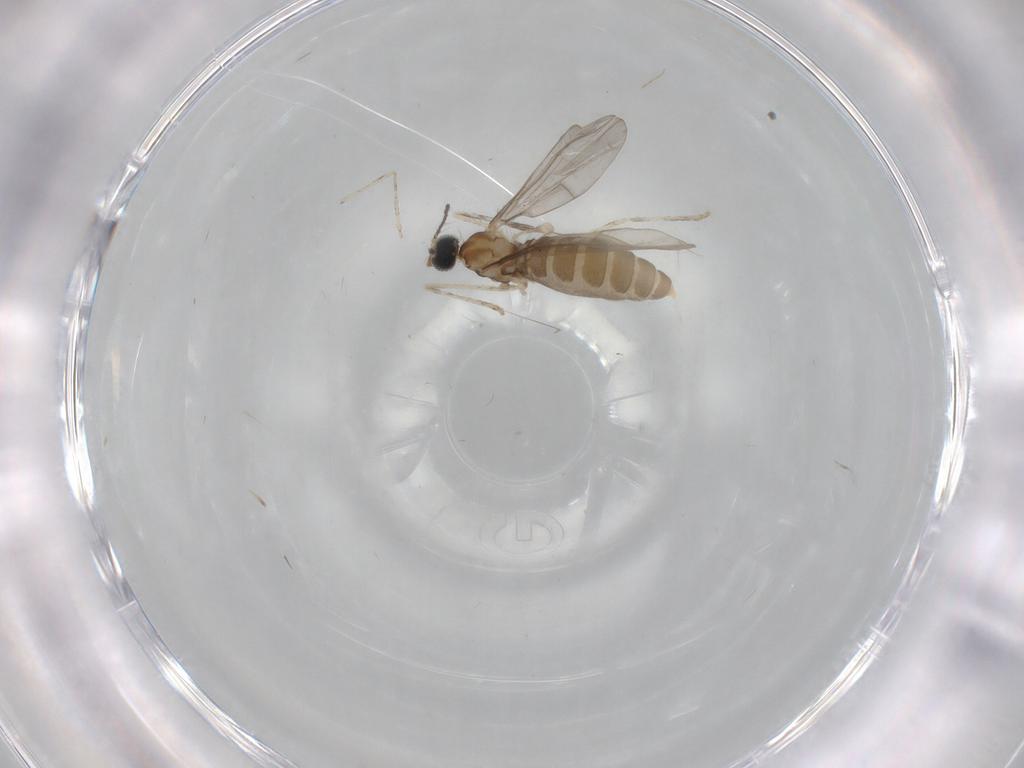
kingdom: Animalia
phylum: Arthropoda
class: Insecta
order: Diptera
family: Cecidomyiidae
